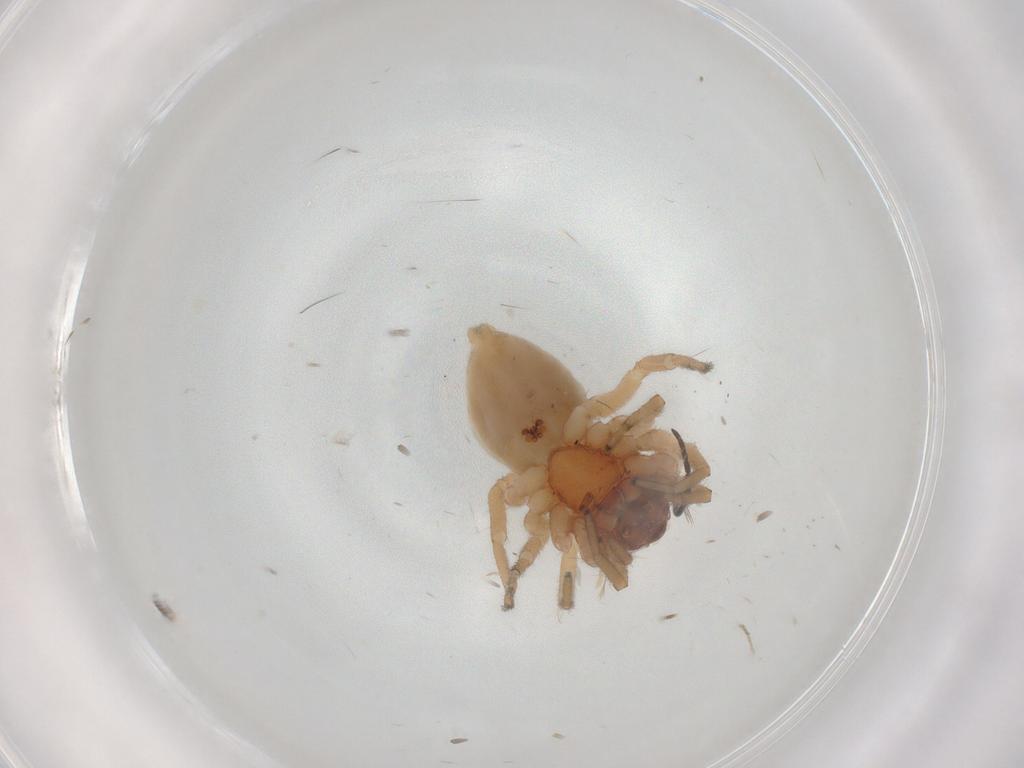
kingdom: Animalia
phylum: Arthropoda
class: Arachnida
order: Araneae
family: Trachelidae
